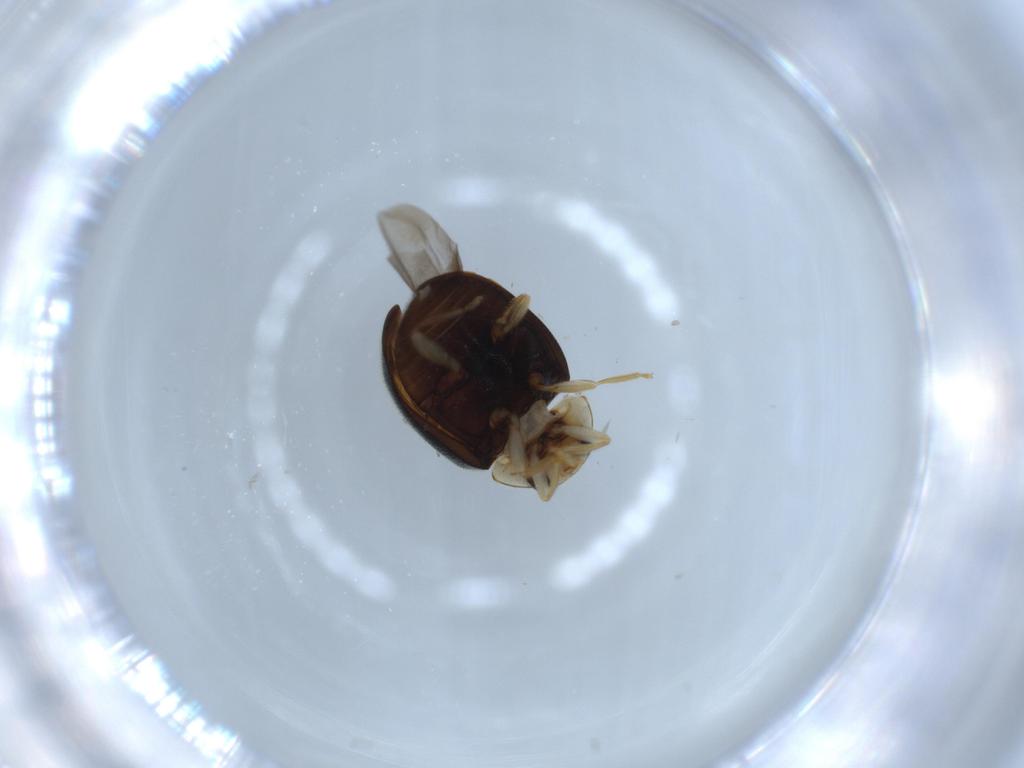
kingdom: Animalia
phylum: Arthropoda
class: Insecta
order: Coleoptera
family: Coccinellidae
